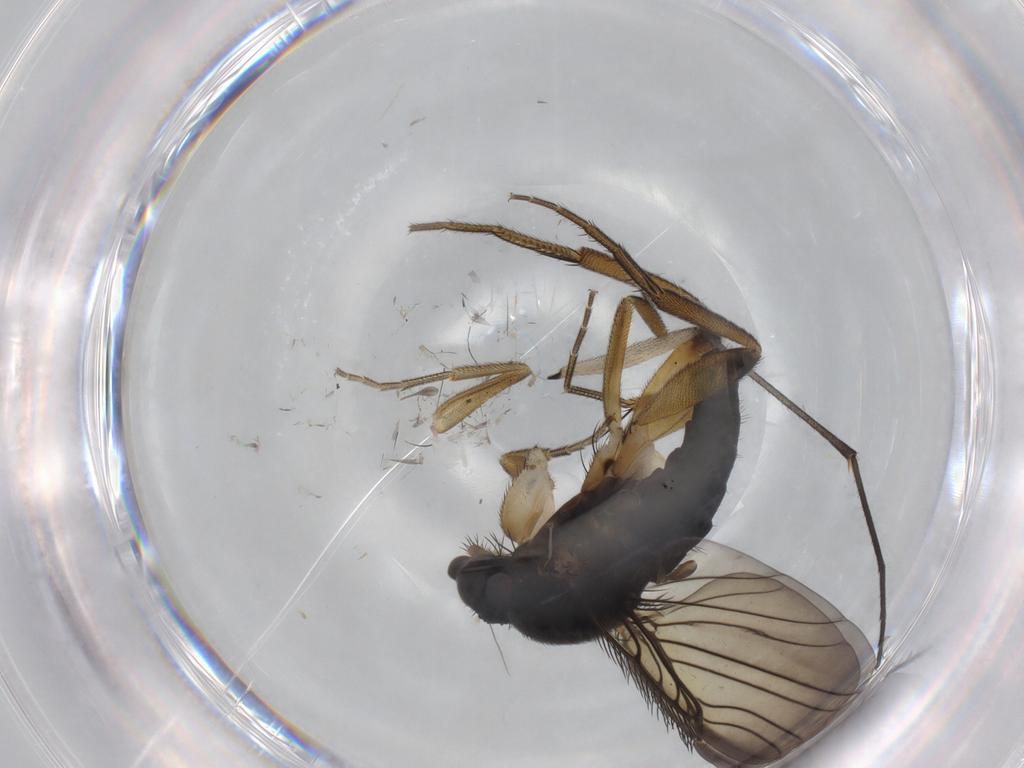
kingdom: Animalia
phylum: Arthropoda
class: Insecta
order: Diptera
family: Phoridae
